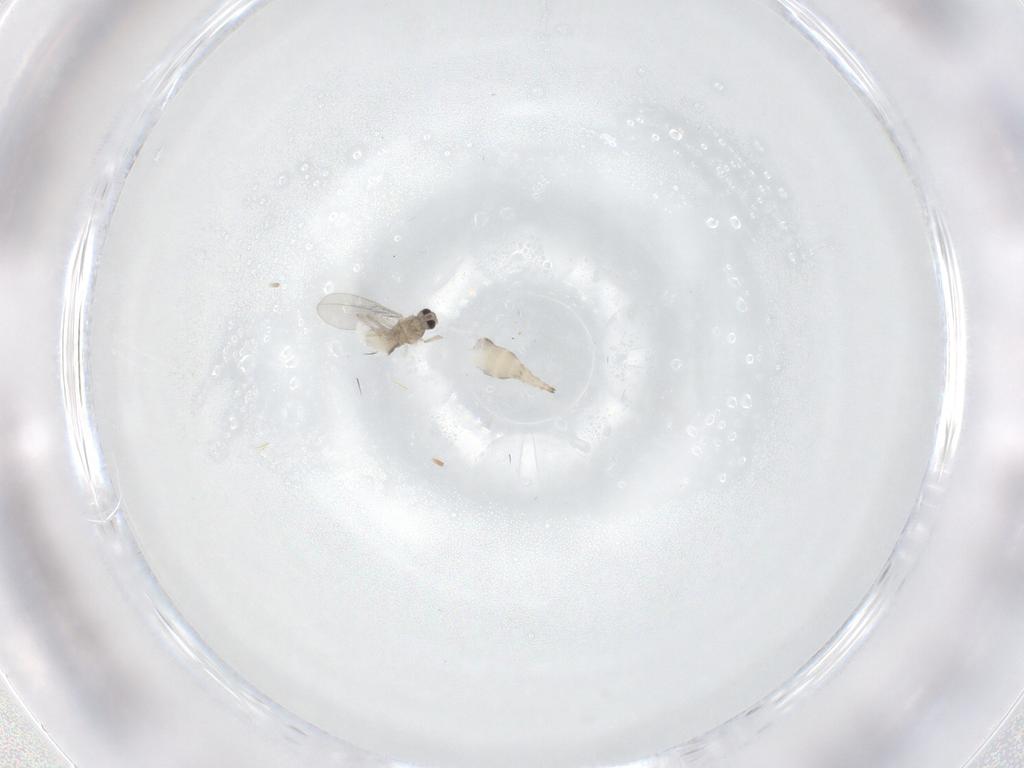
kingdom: Animalia
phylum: Arthropoda
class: Insecta
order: Diptera
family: Cecidomyiidae
